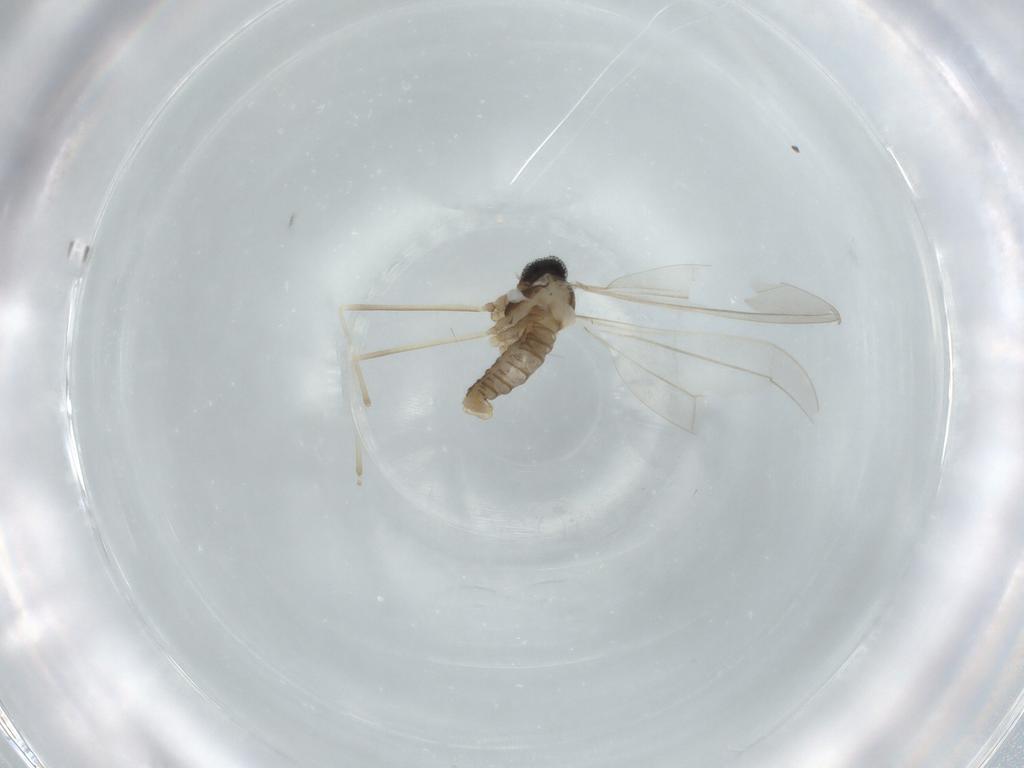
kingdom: Animalia
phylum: Arthropoda
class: Insecta
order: Diptera
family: Cecidomyiidae
